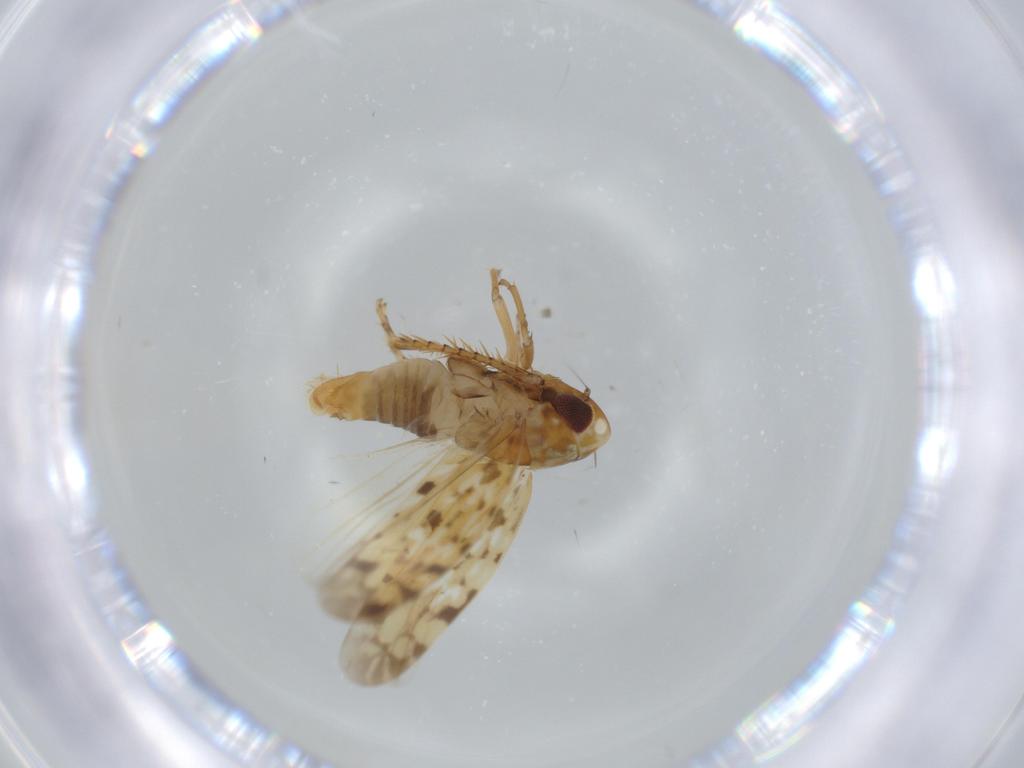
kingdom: Animalia
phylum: Arthropoda
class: Insecta
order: Hemiptera
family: Cicadellidae
